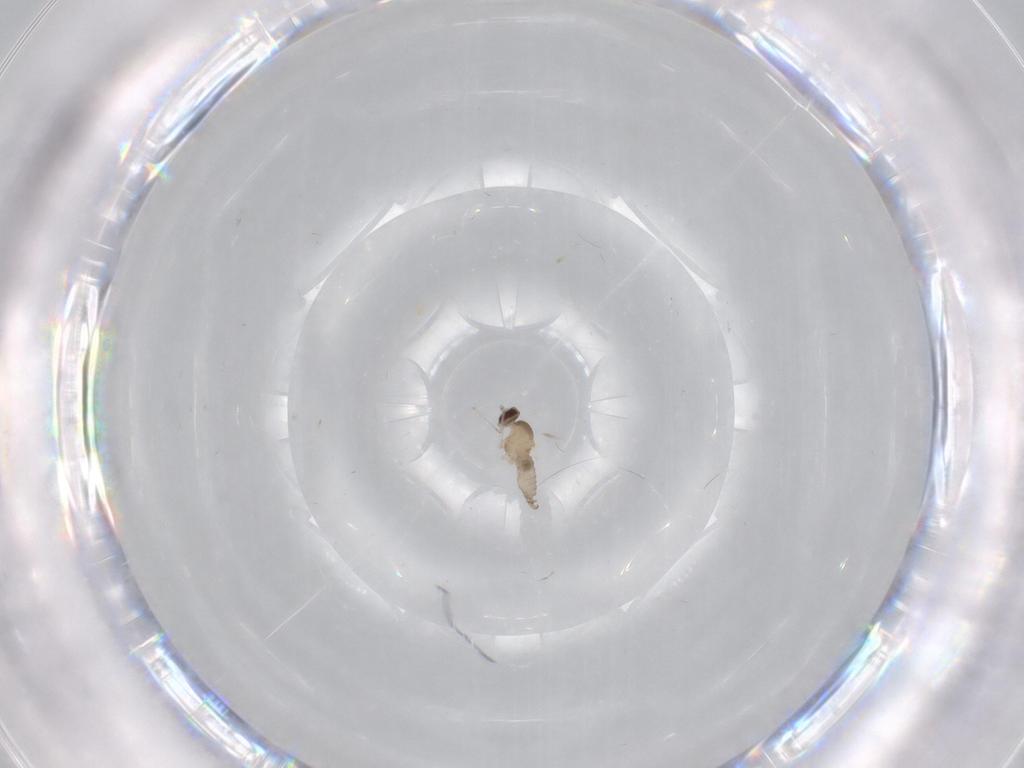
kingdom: Animalia
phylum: Arthropoda
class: Insecta
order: Diptera
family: Cecidomyiidae
